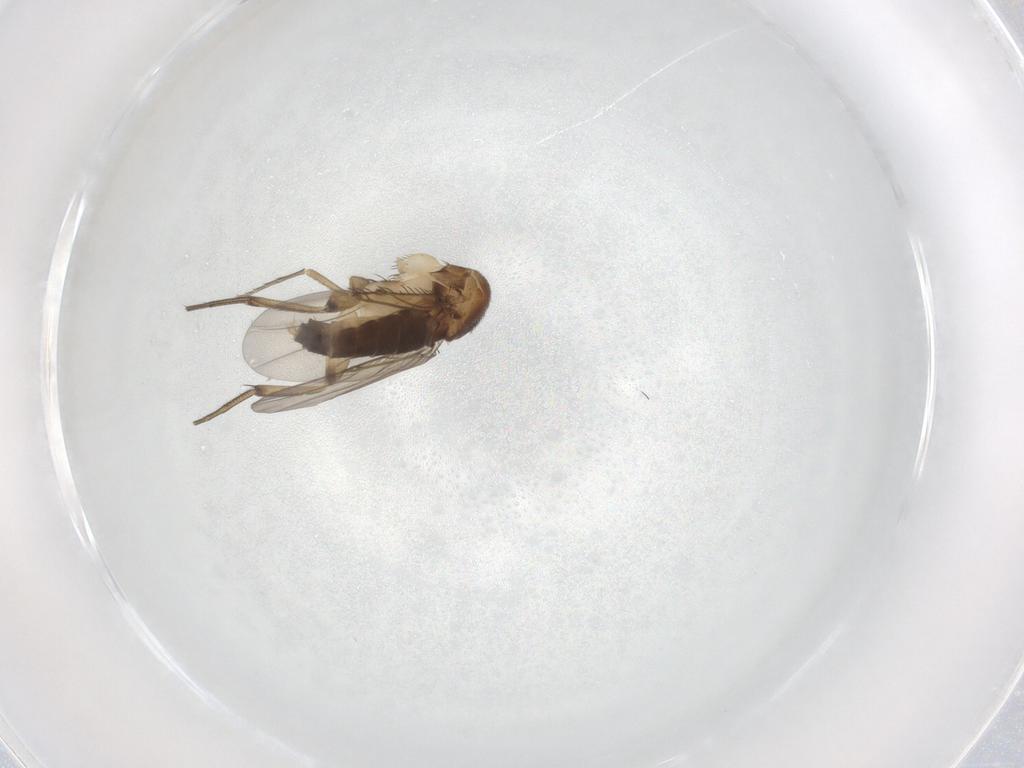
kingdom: Animalia
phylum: Arthropoda
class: Insecta
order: Diptera
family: Phoridae
